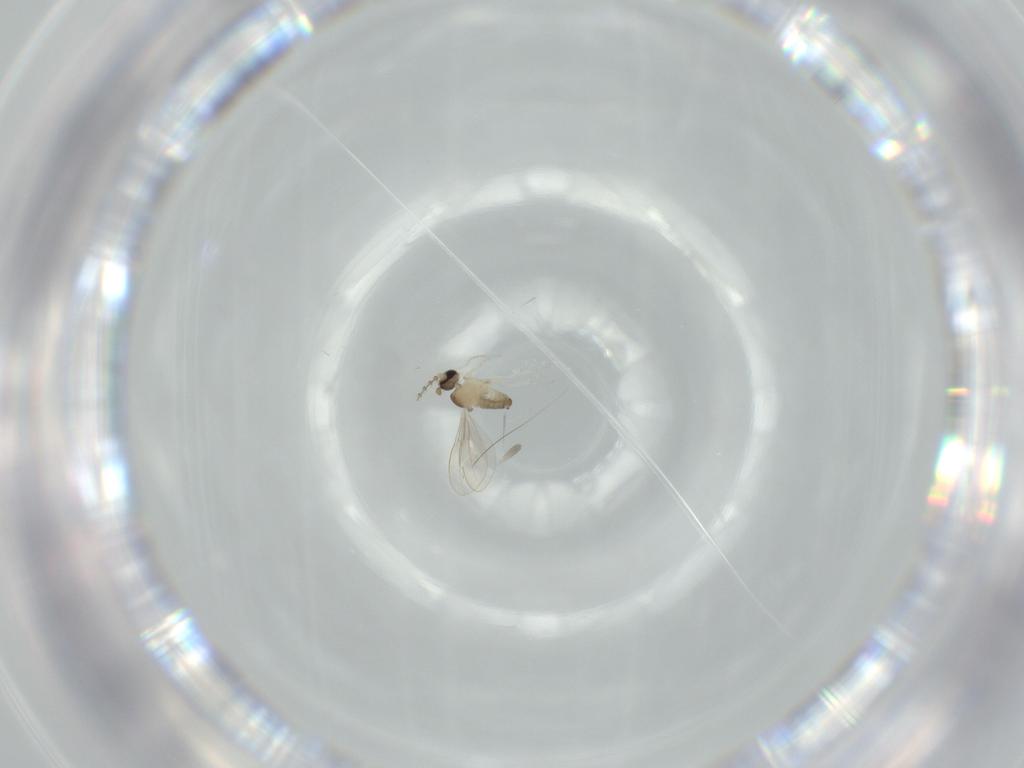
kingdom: Animalia
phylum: Arthropoda
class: Insecta
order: Diptera
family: Cecidomyiidae
